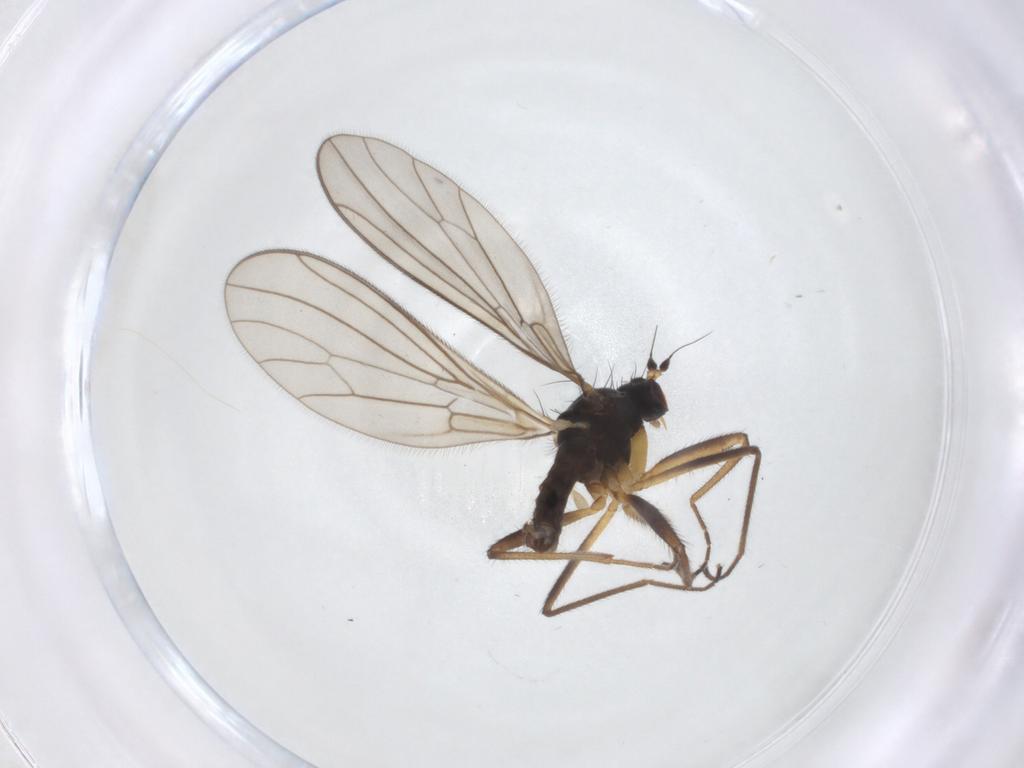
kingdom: Animalia
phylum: Arthropoda
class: Insecta
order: Diptera
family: Empididae
